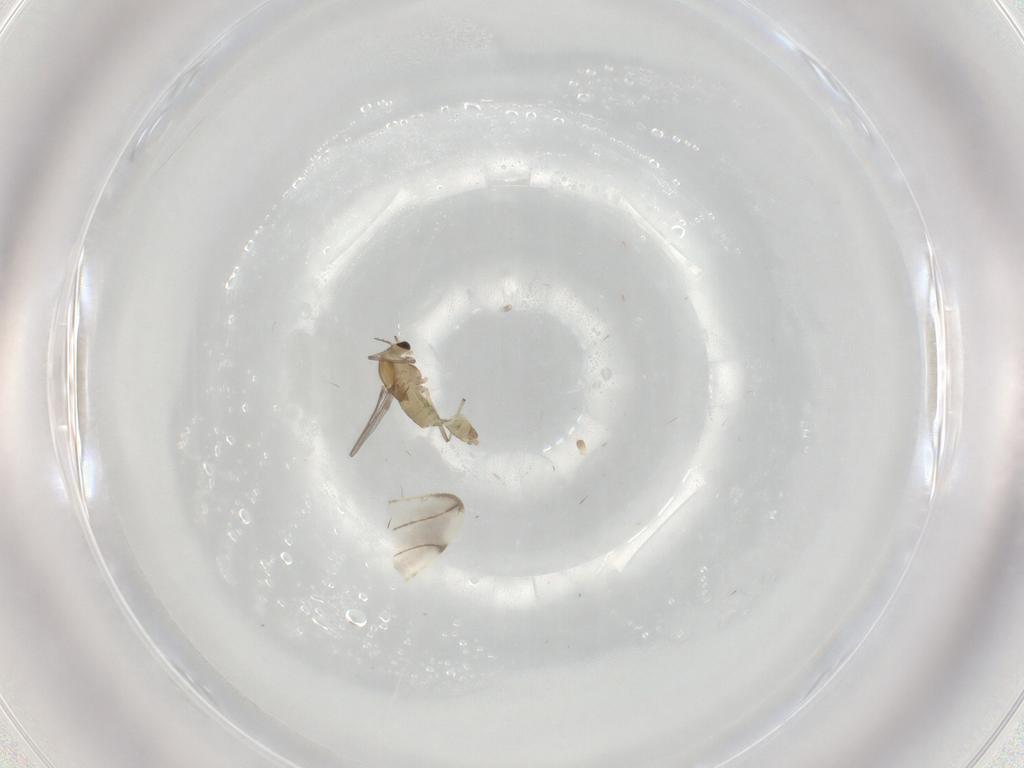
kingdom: Animalia
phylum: Arthropoda
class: Insecta
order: Diptera
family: Chironomidae
